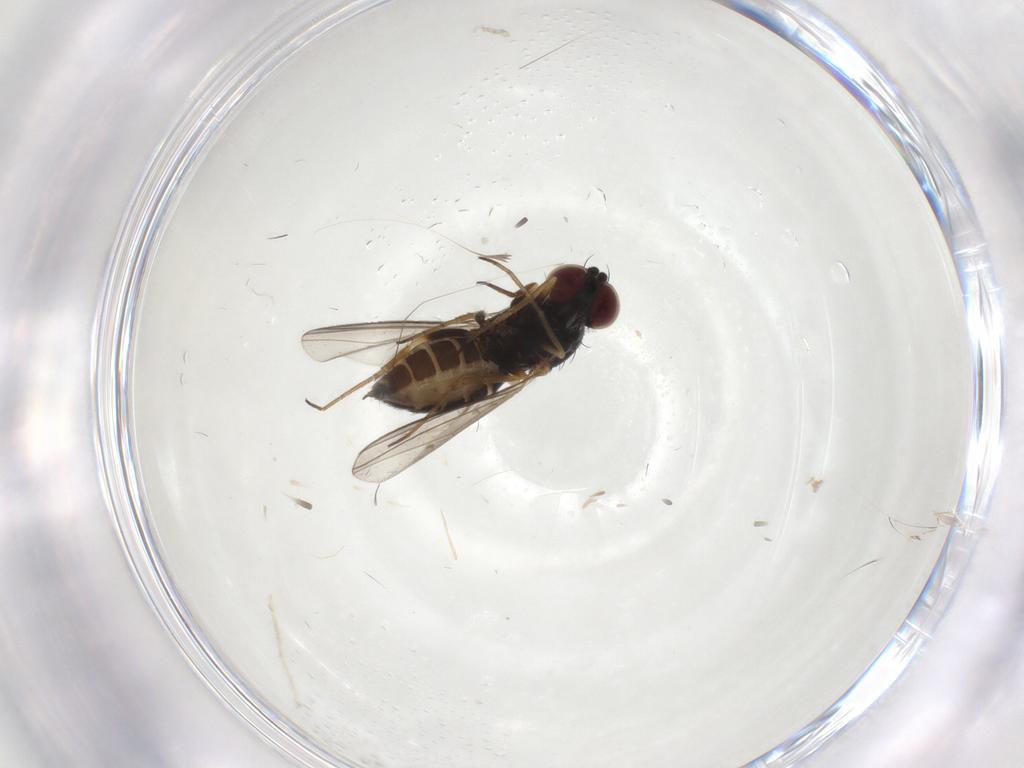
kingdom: Animalia
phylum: Arthropoda
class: Insecta
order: Diptera
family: Dolichopodidae
